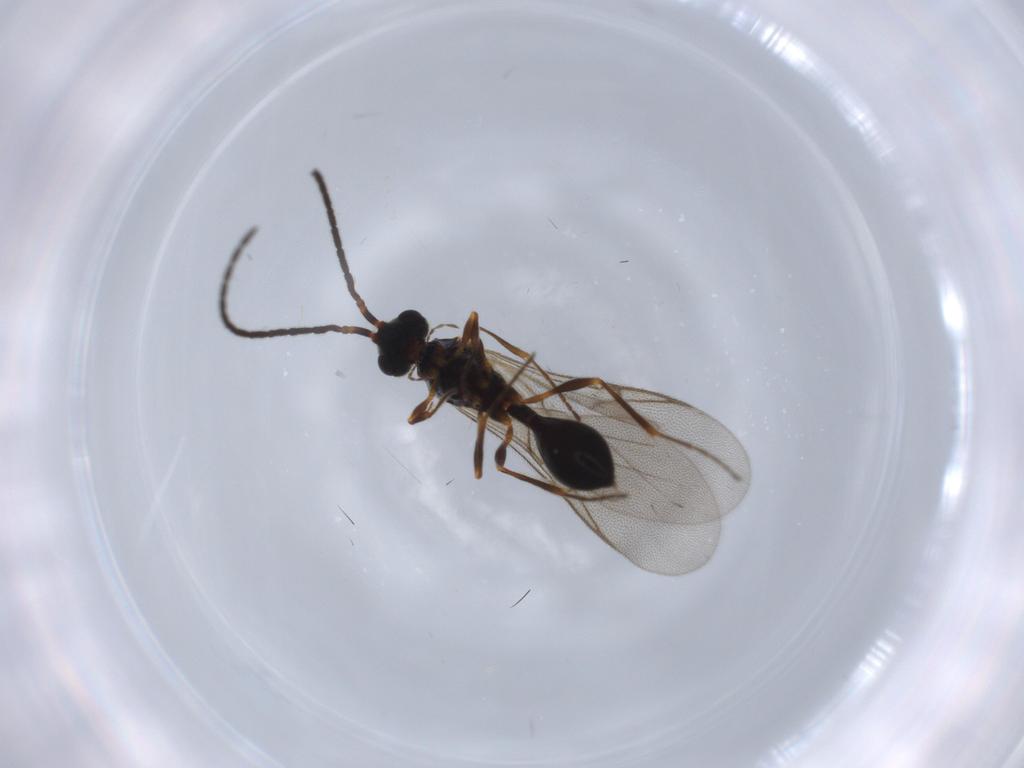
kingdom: Animalia
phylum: Arthropoda
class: Insecta
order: Hymenoptera
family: Diapriidae
